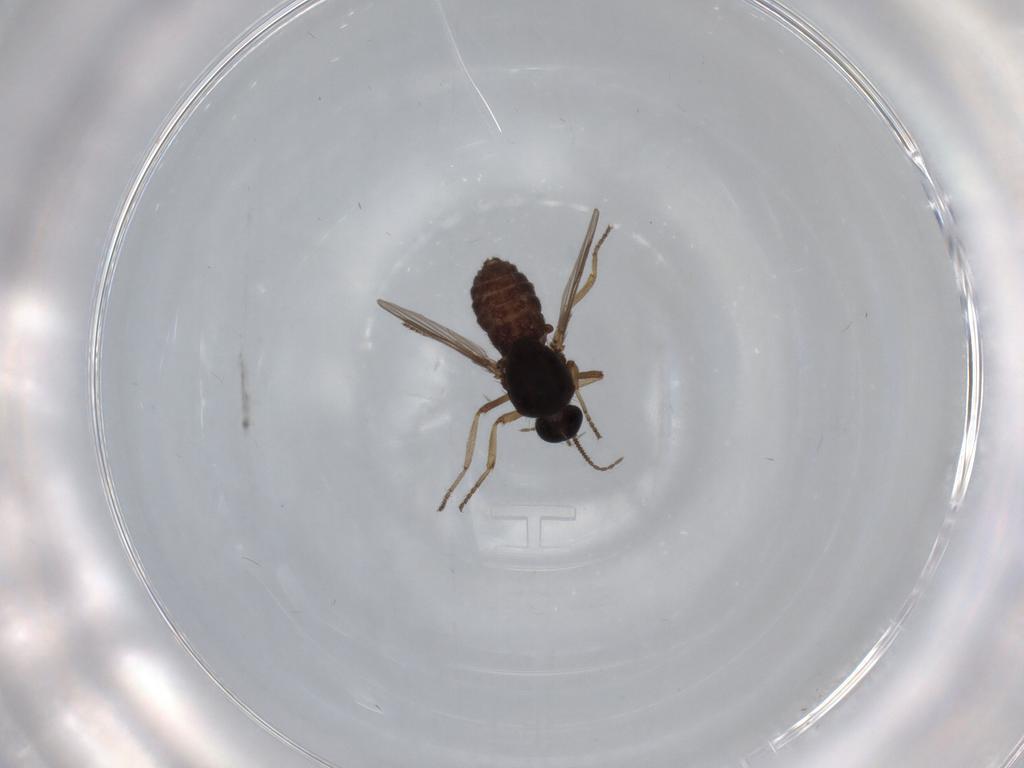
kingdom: Animalia
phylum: Arthropoda
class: Insecta
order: Diptera
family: Ceratopogonidae
